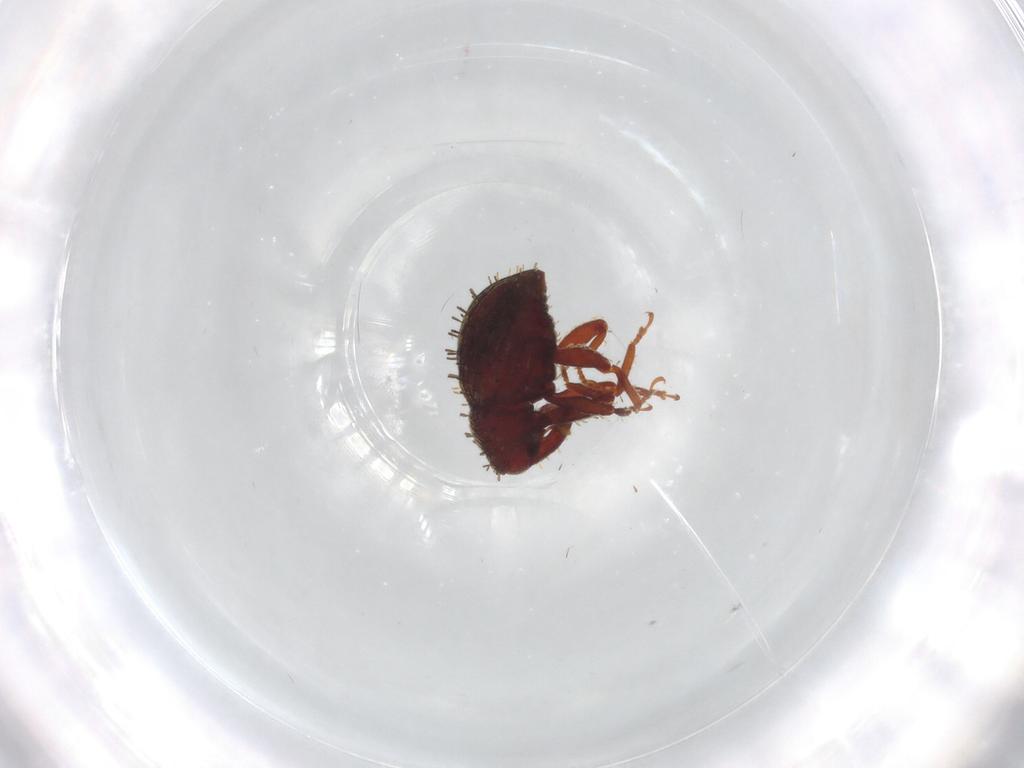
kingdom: Animalia
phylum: Arthropoda
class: Insecta
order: Coleoptera
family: Curculionidae
